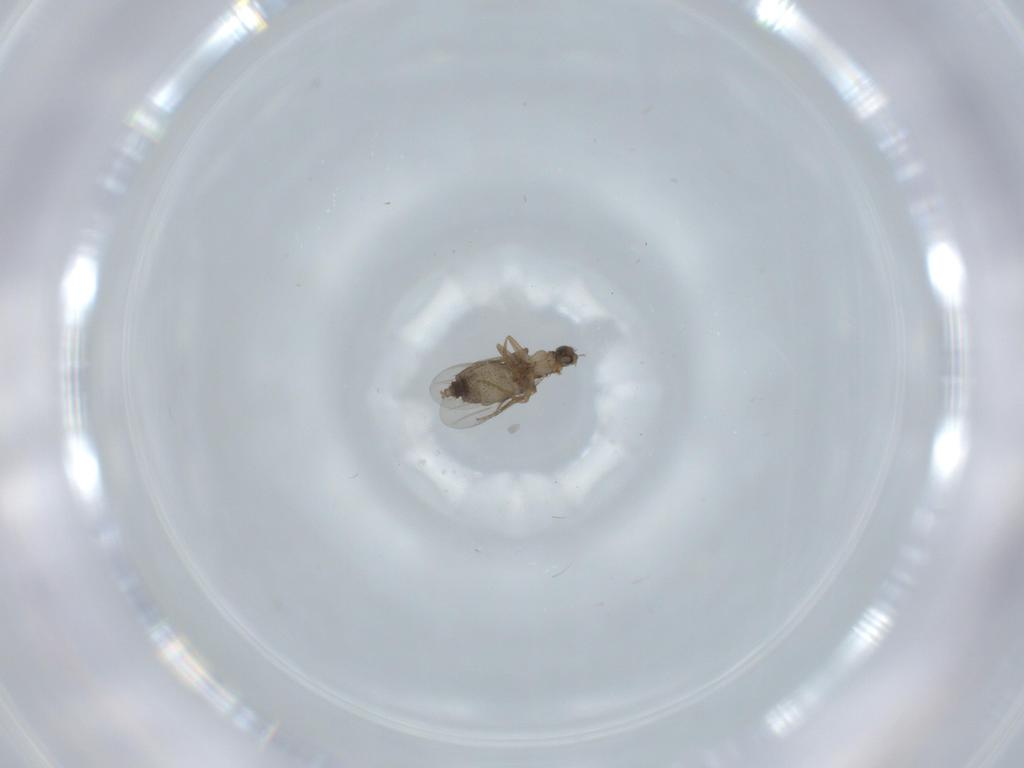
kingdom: Animalia
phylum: Arthropoda
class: Insecta
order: Diptera
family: Phoridae
